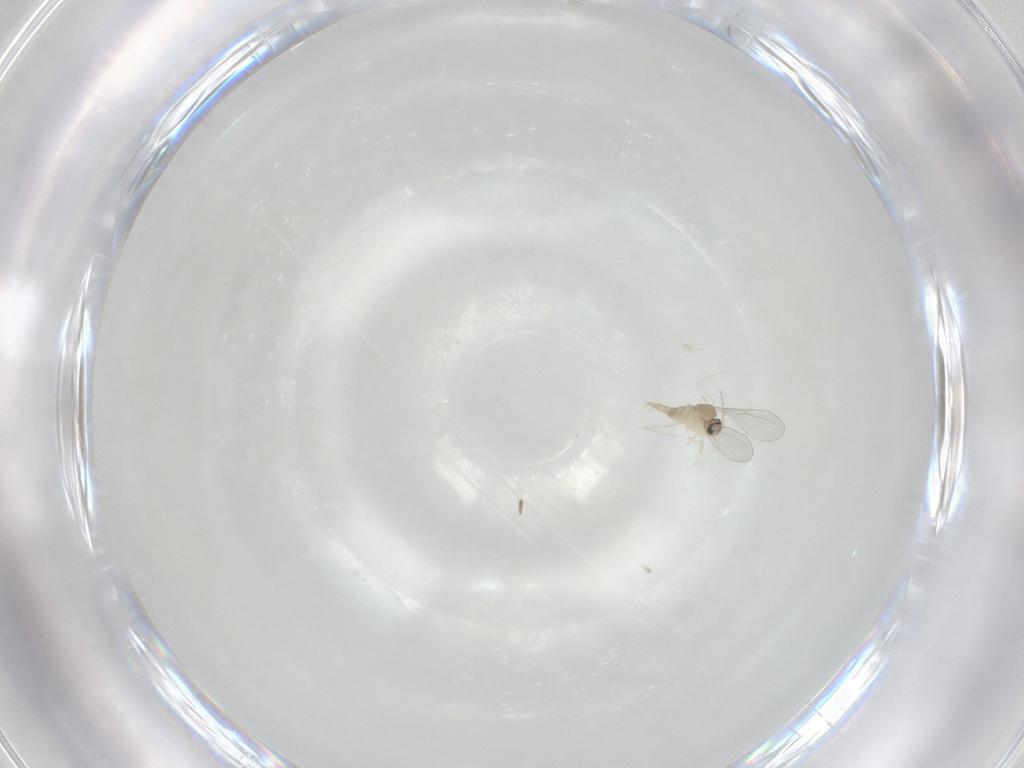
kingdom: Animalia
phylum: Arthropoda
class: Insecta
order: Diptera
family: Cecidomyiidae
